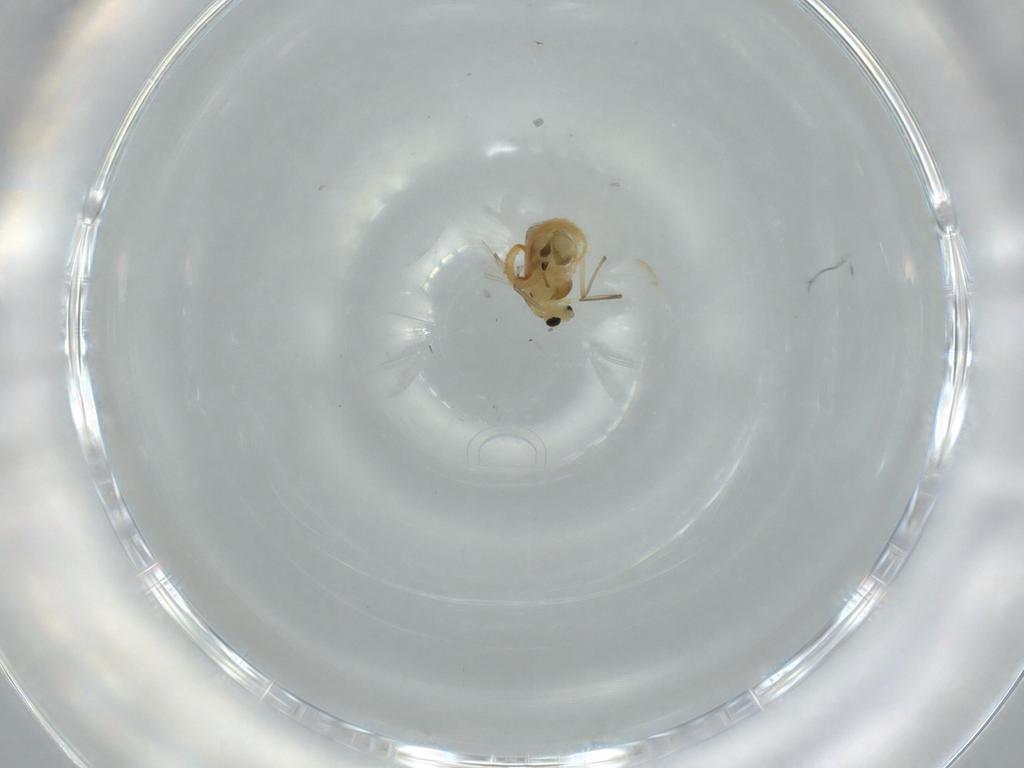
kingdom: Animalia
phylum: Arthropoda
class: Insecta
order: Diptera
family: Chironomidae
